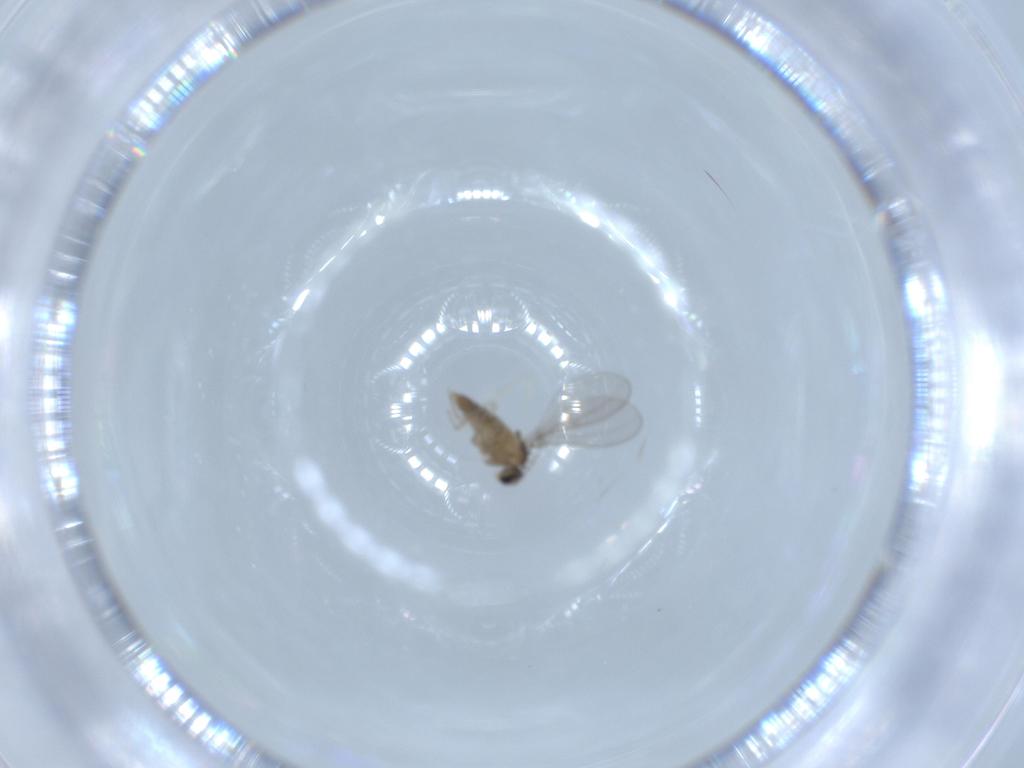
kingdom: Animalia
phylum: Arthropoda
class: Insecta
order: Diptera
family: Cecidomyiidae
